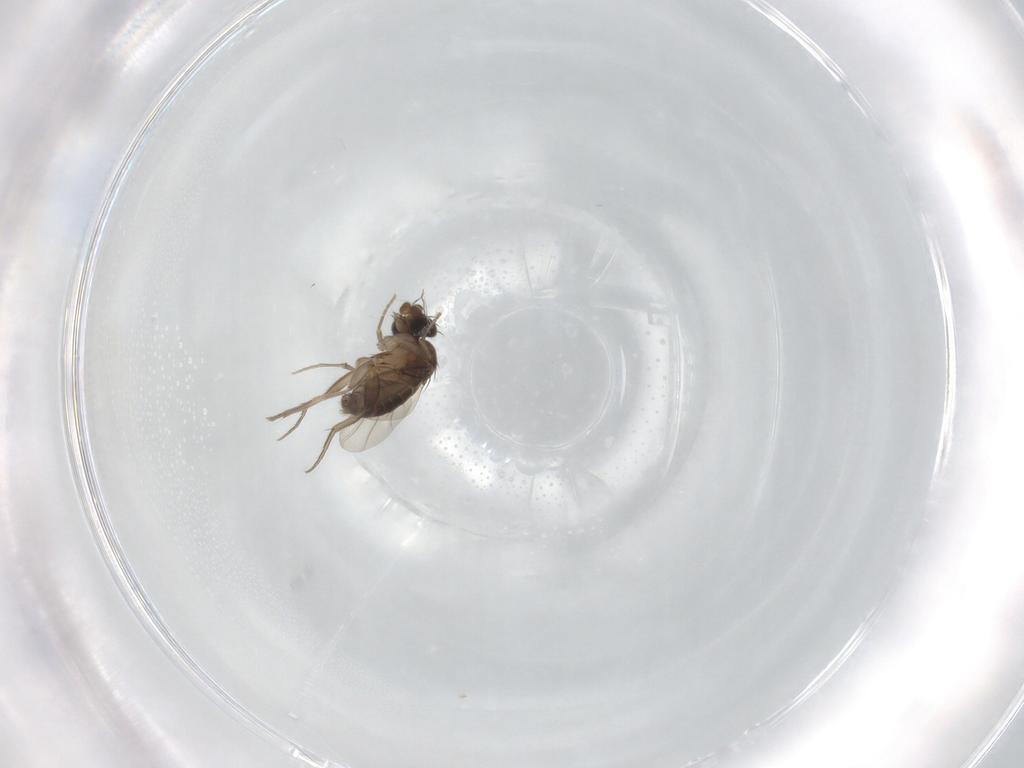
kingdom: Animalia
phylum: Arthropoda
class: Insecta
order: Diptera
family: Phoridae
